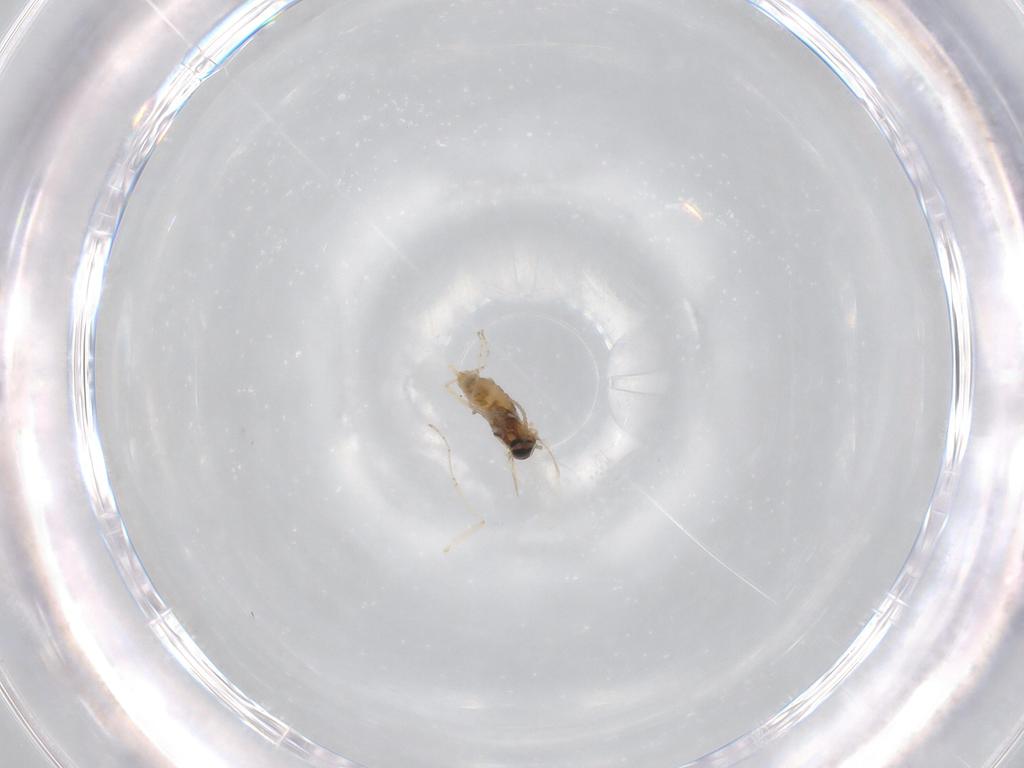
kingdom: Animalia
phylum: Arthropoda
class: Insecta
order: Diptera
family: Cecidomyiidae
